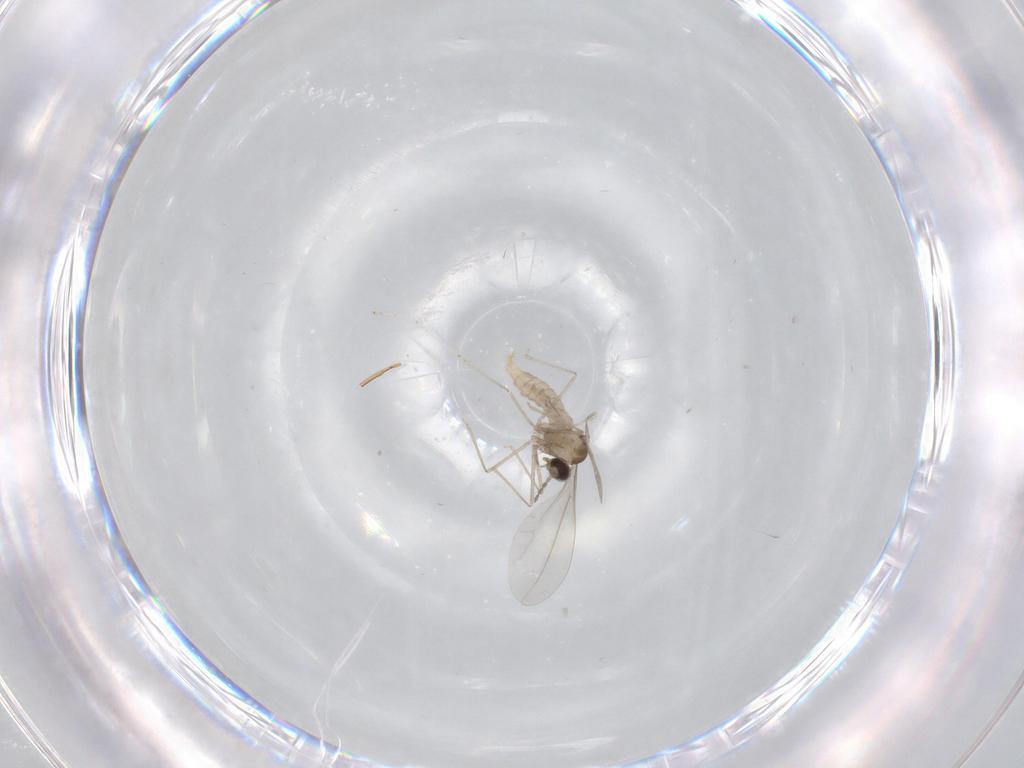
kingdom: Animalia
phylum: Arthropoda
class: Insecta
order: Diptera
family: Cecidomyiidae
